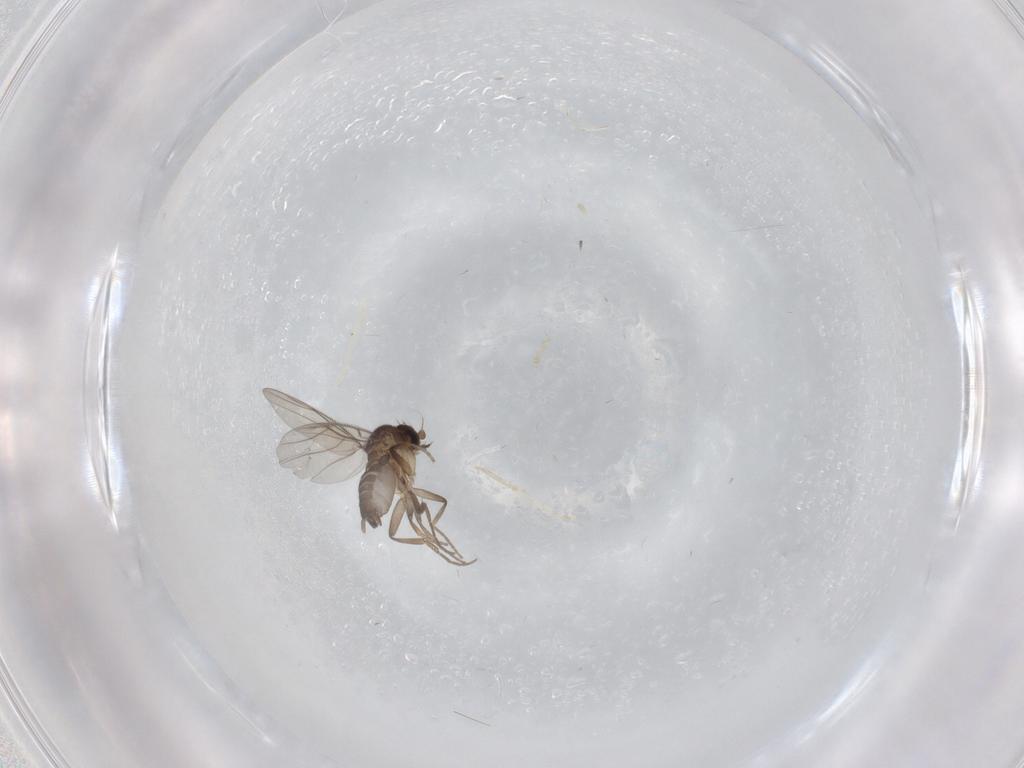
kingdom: Animalia
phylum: Arthropoda
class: Insecta
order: Diptera
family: Phoridae
